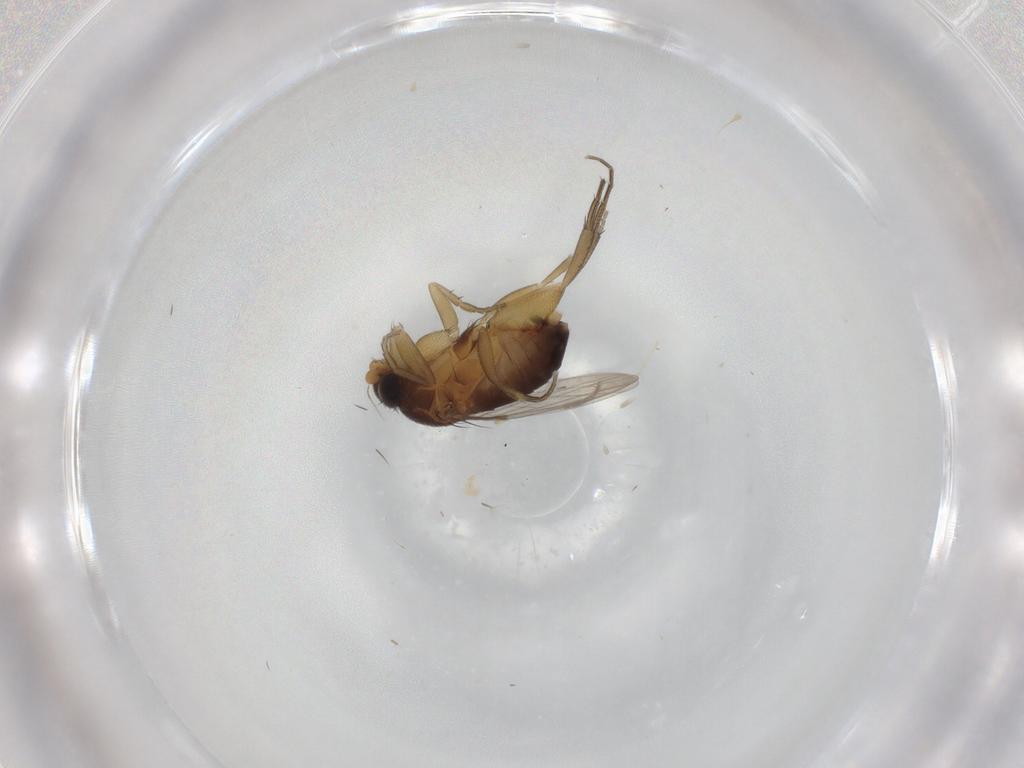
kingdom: Animalia
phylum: Arthropoda
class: Insecta
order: Diptera
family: Phoridae
